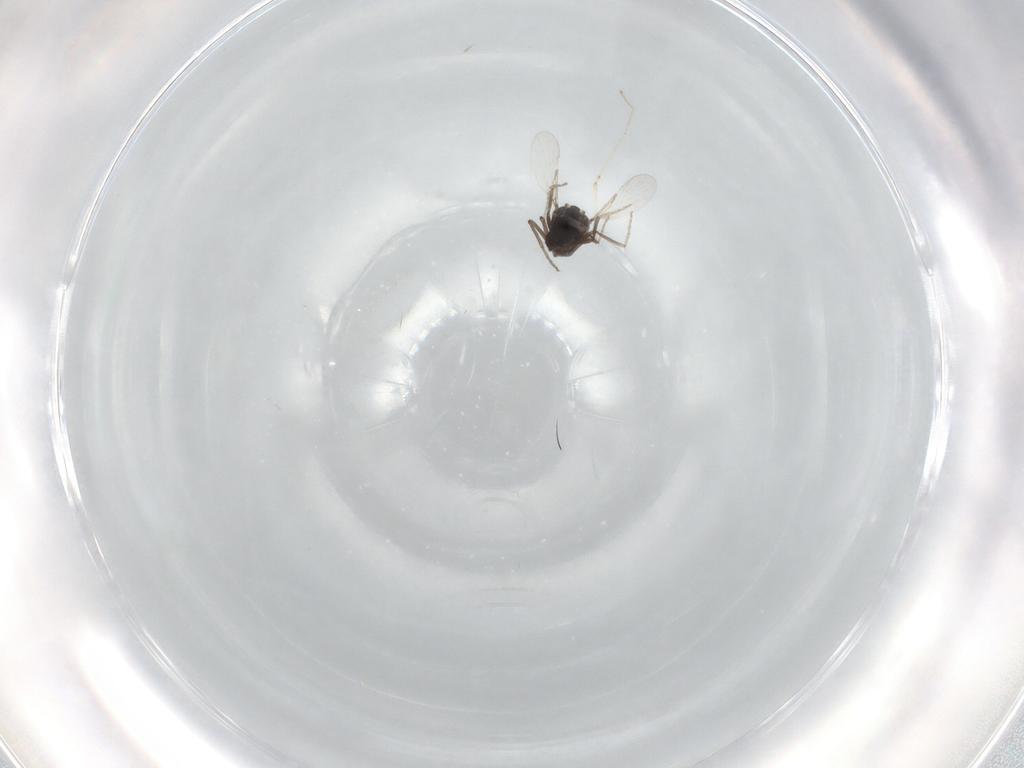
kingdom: Animalia
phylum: Arthropoda
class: Insecta
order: Diptera
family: Ceratopogonidae
